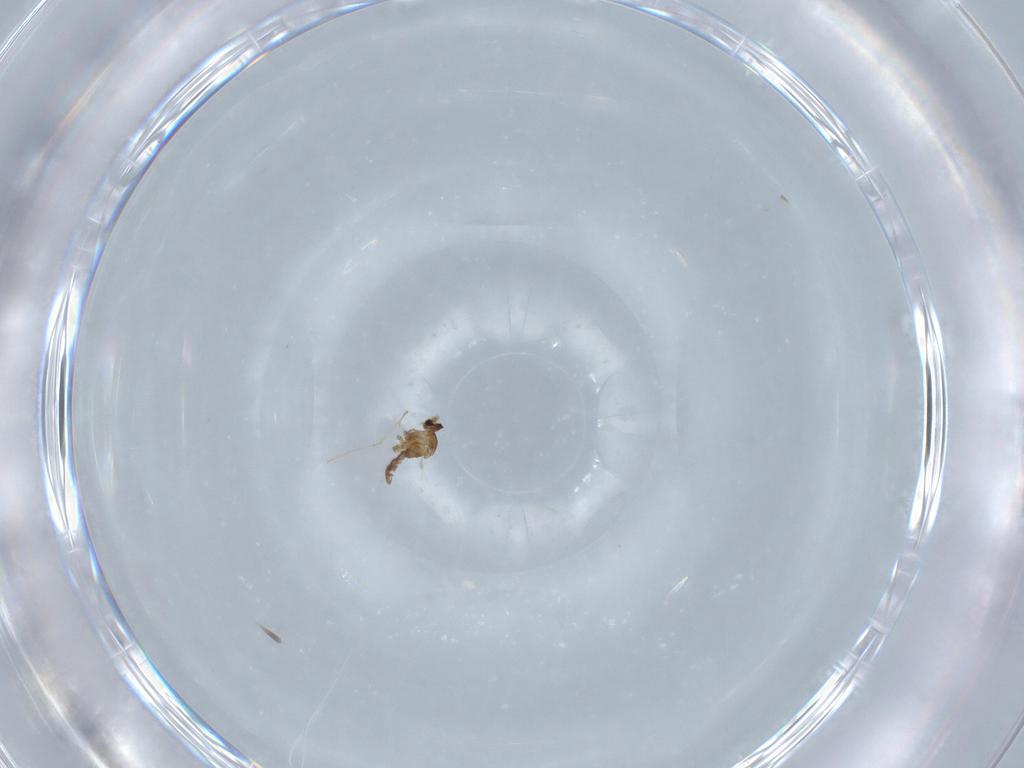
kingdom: Animalia
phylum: Arthropoda
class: Insecta
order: Diptera
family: Cecidomyiidae
